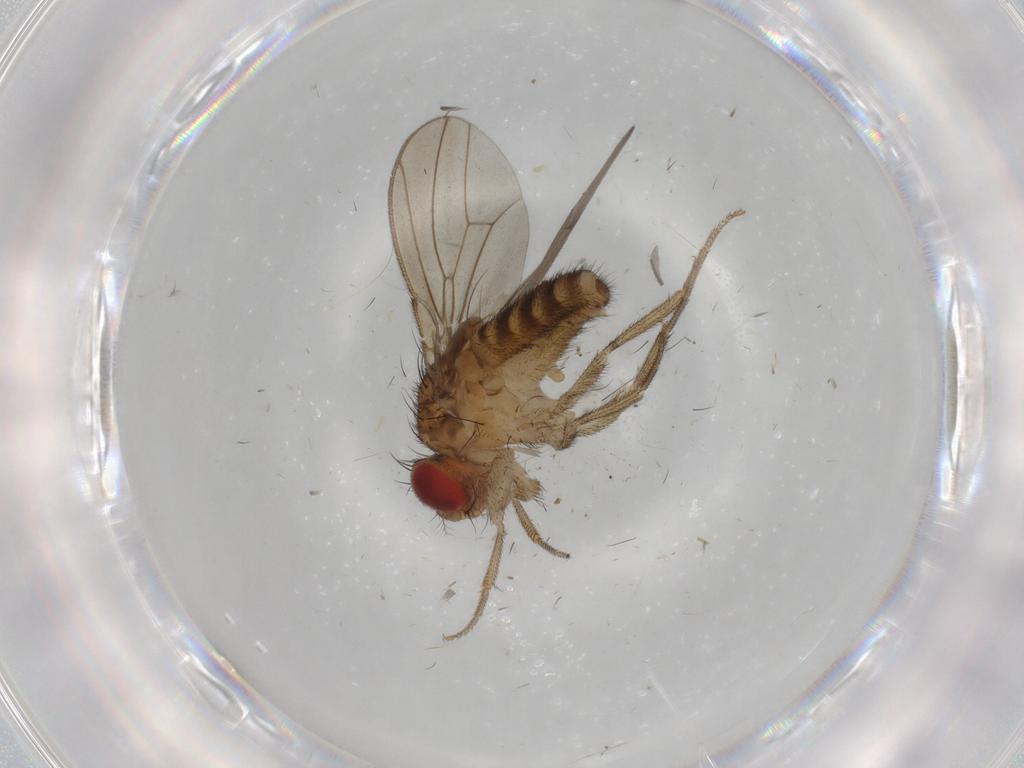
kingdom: Animalia
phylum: Arthropoda
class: Insecta
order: Diptera
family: Drosophilidae
